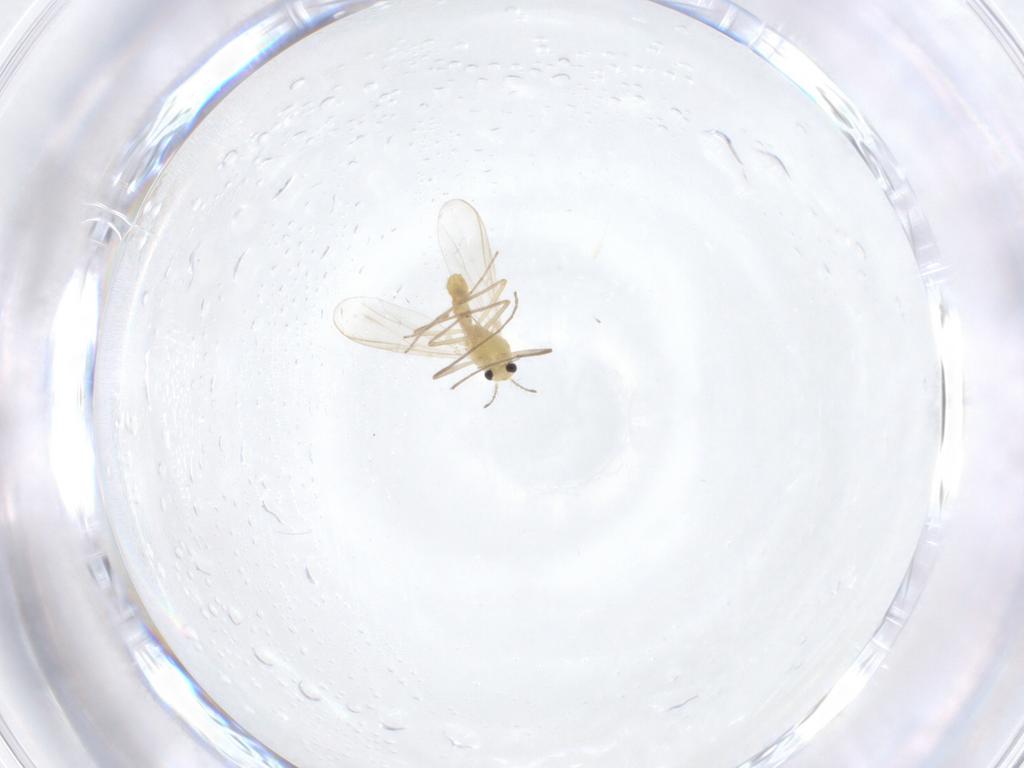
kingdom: Animalia
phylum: Arthropoda
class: Insecta
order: Diptera
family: Chironomidae
